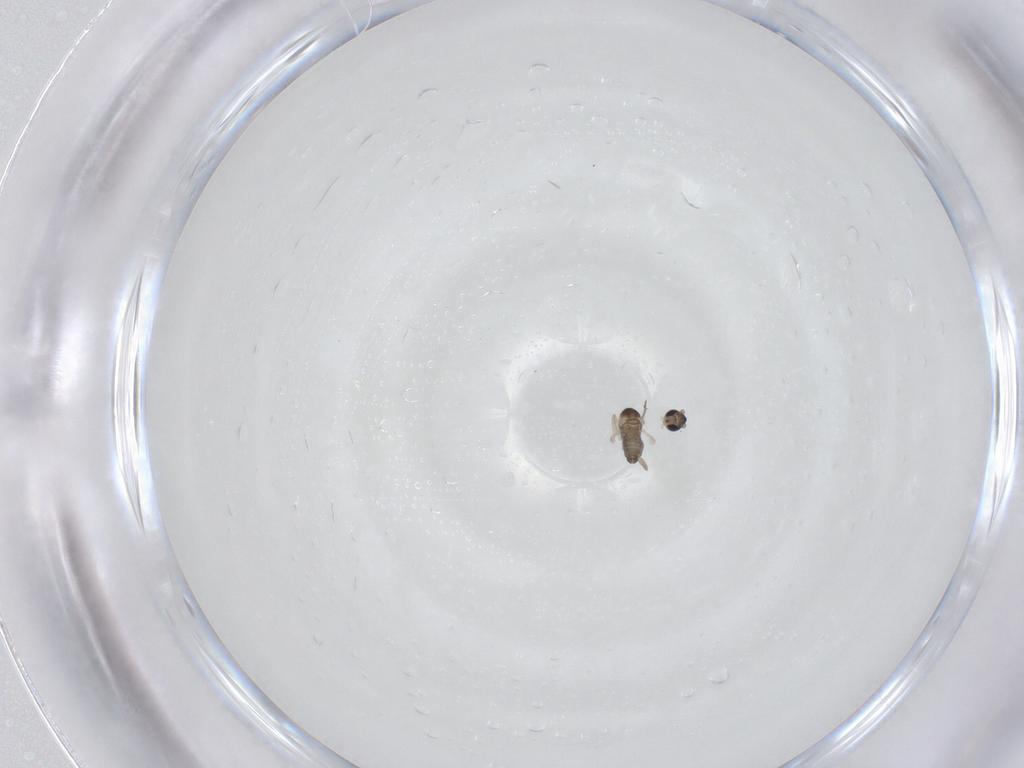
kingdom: Animalia
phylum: Arthropoda
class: Insecta
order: Diptera
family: Cecidomyiidae
